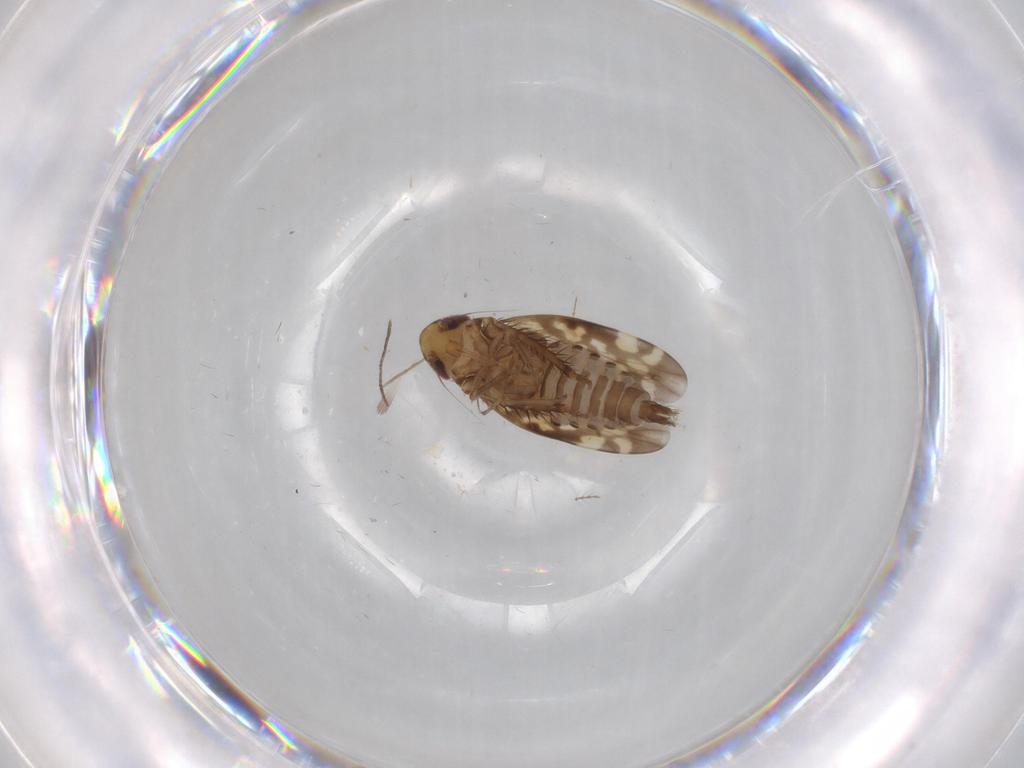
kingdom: Animalia
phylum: Arthropoda
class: Insecta
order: Hemiptera
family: Cicadellidae
